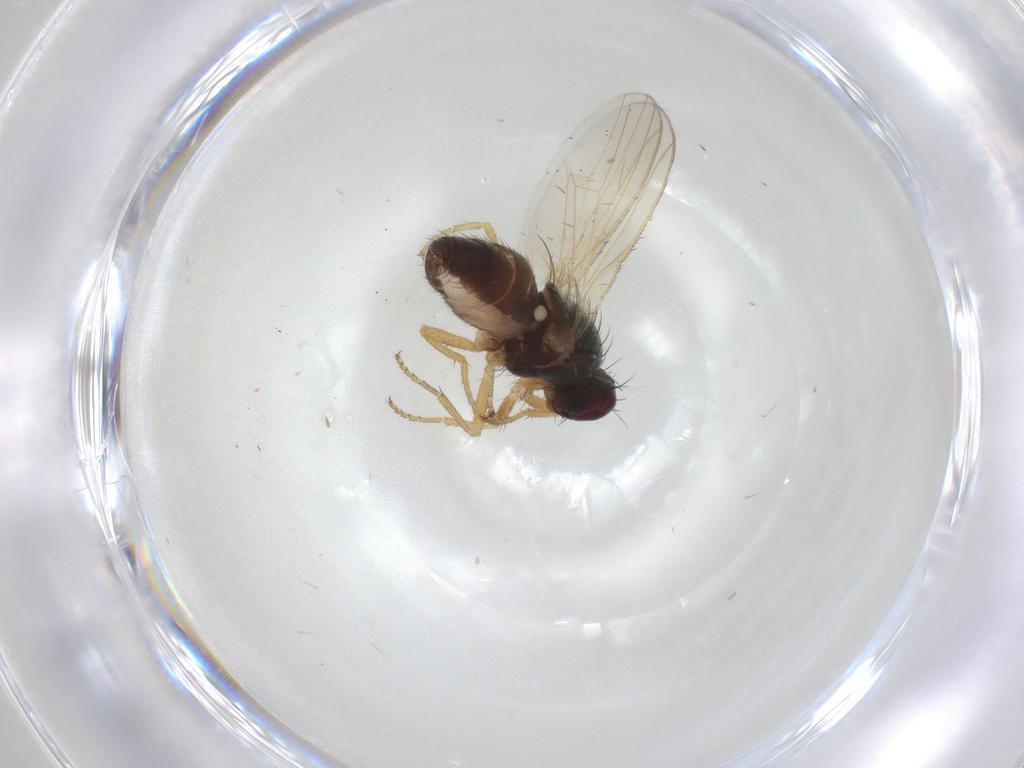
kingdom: Animalia
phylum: Arthropoda
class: Insecta
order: Diptera
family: Heleomyzidae
